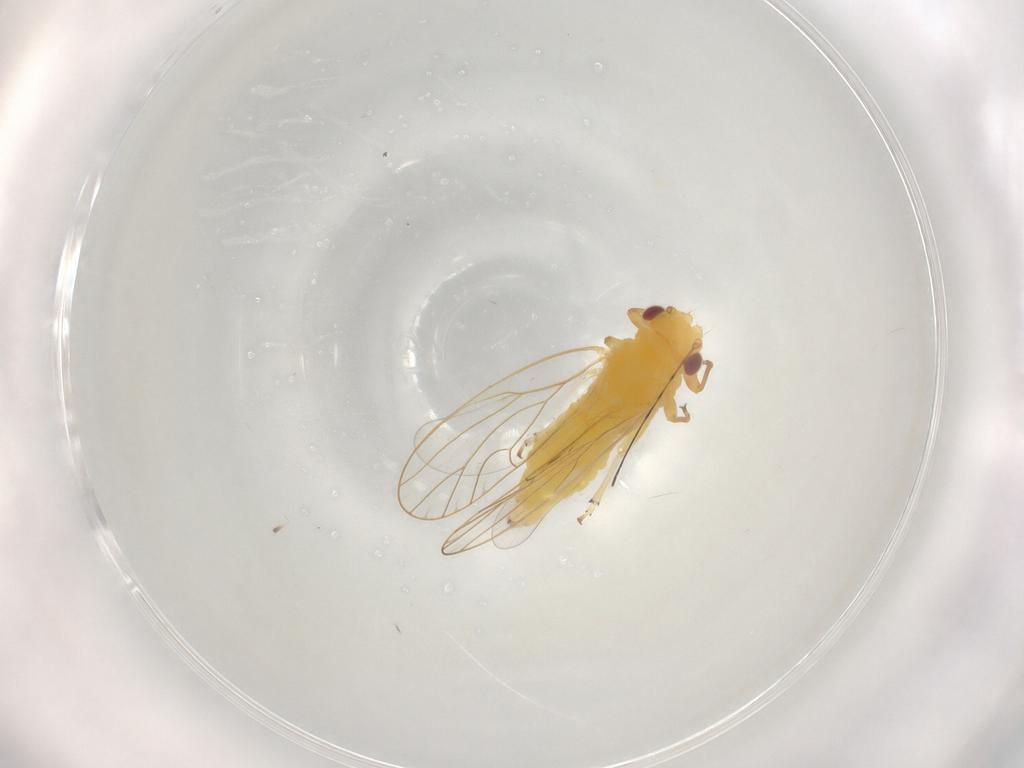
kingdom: Animalia
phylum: Arthropoda
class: Insecta
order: Hemiptera
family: Psyllidae
